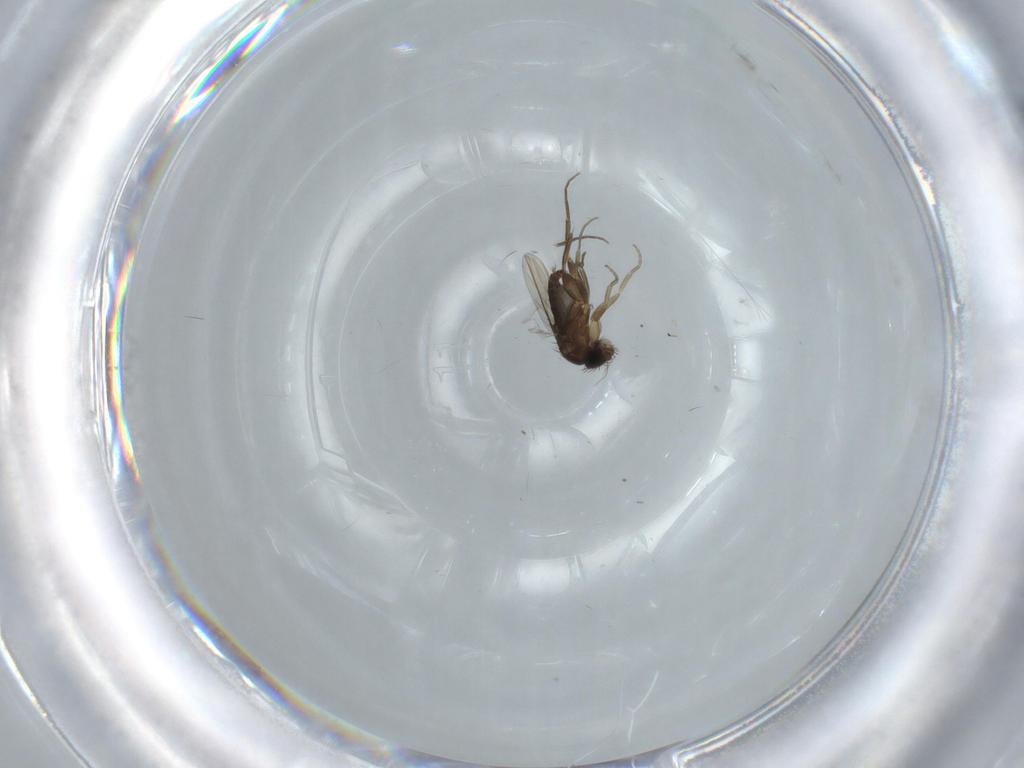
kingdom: Animalia
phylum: Arthropoda
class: Insecta
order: Diptera
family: Phoridae
